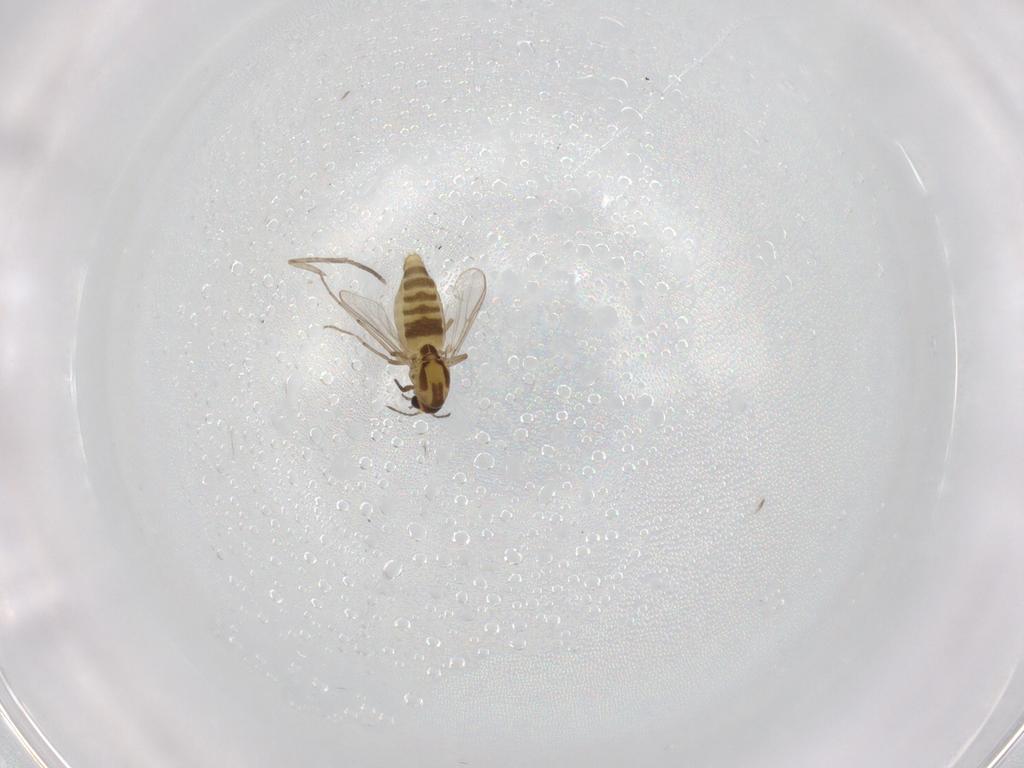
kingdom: Animalia
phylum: Arthropoda
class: Insecta
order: Diptera
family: Chironomidae
